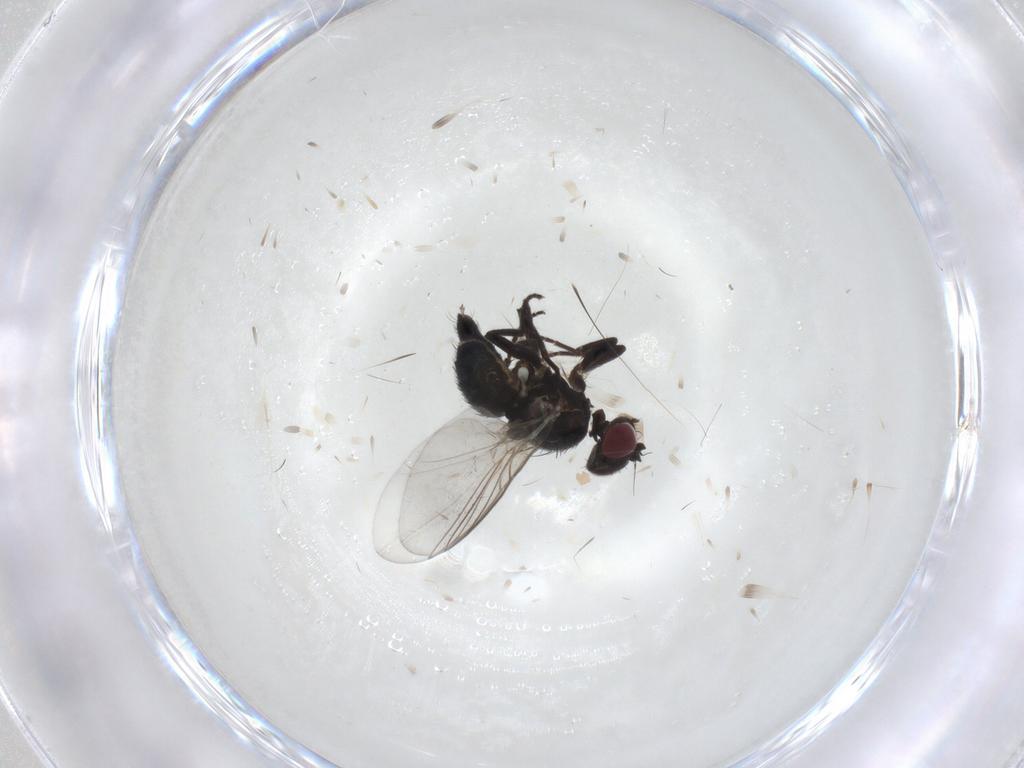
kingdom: Animalia
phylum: Arthropoda
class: Insecta
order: Diptera
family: Agromyzidae
